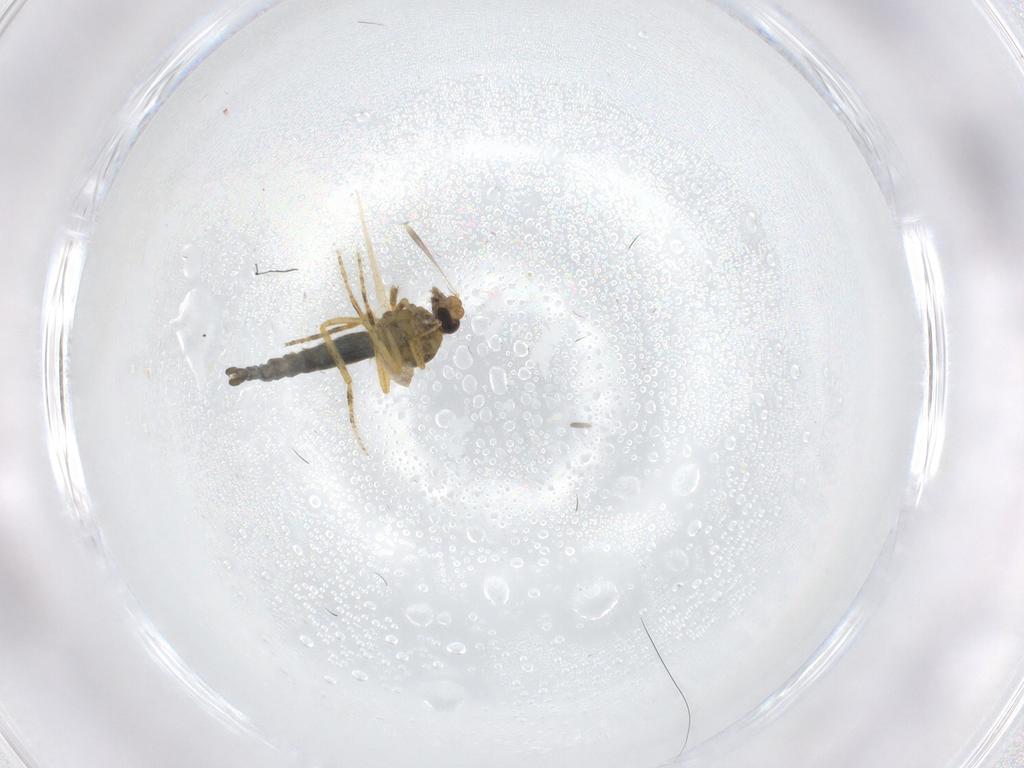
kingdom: Animalia
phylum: Arthropoda
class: Insecta
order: Diptera
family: Ceratopogonidae
